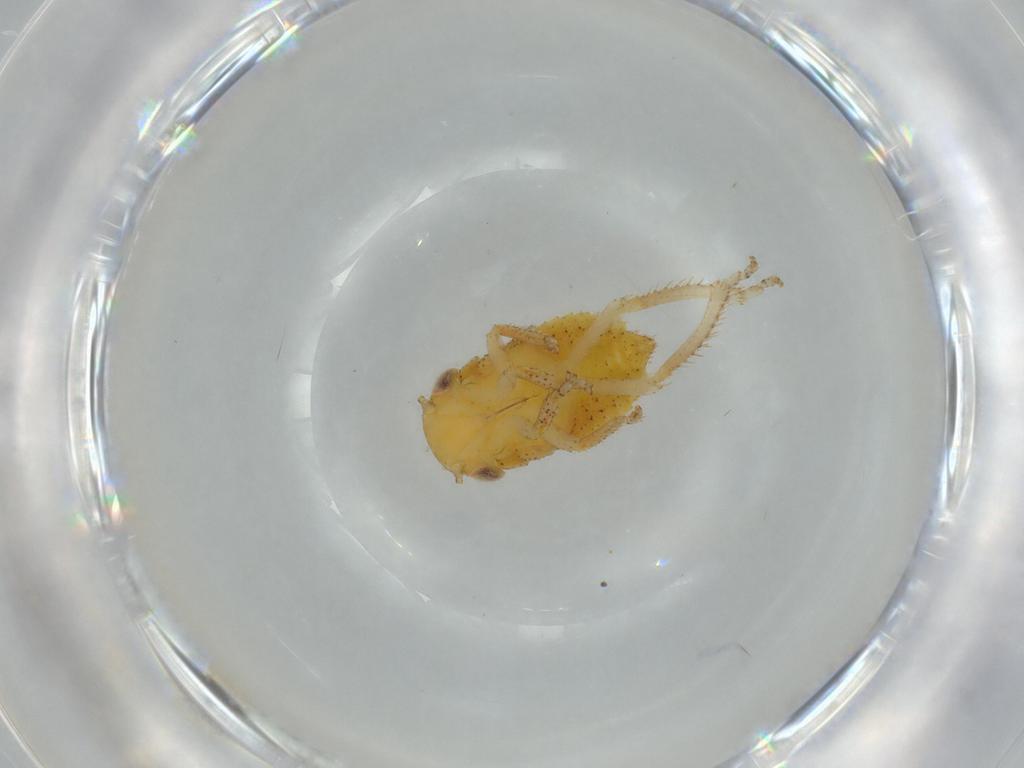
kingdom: Animalia
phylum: Arthropoda
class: Insecta
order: Hemiptera
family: Cicadellidae
